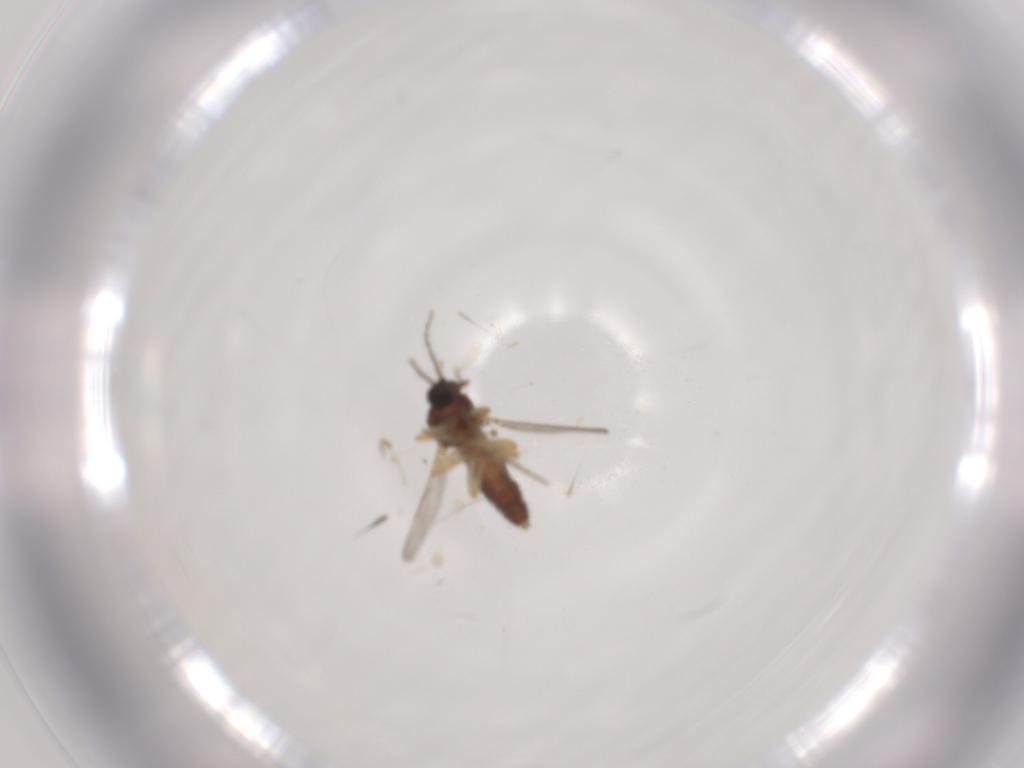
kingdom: Animalia
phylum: Arthropoda
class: Insecta
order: Diptera
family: Ceratopogonidae
